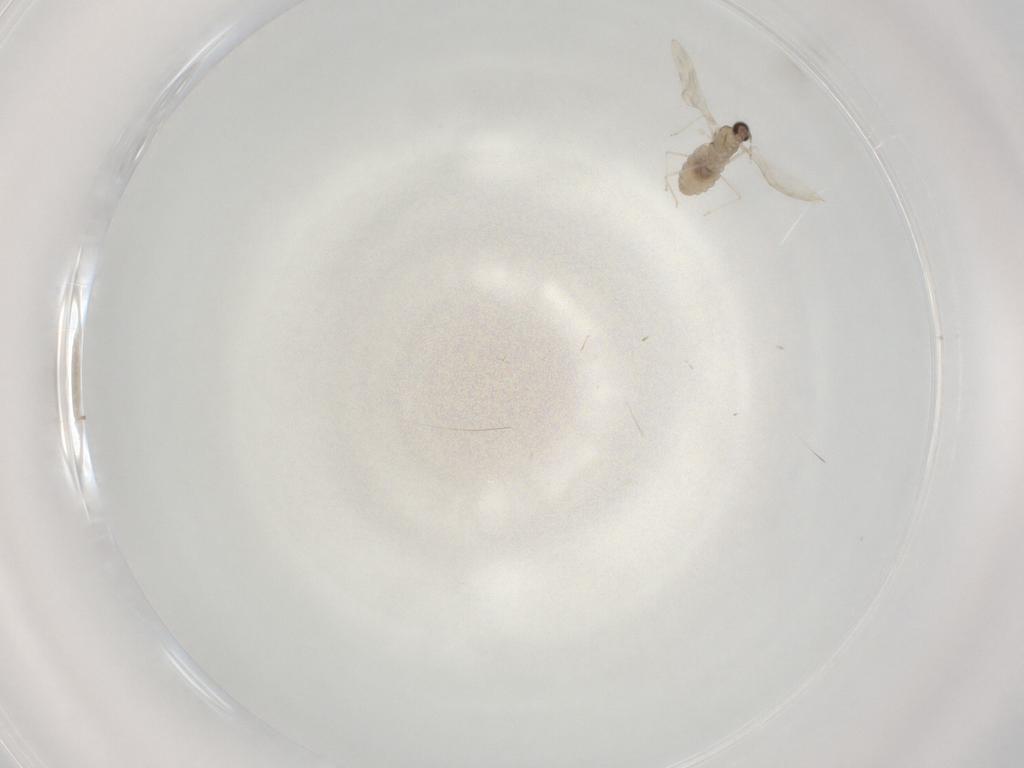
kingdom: Animalia
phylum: Arthropoda
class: Insecta
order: Diptera
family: Cecidomyiidae
